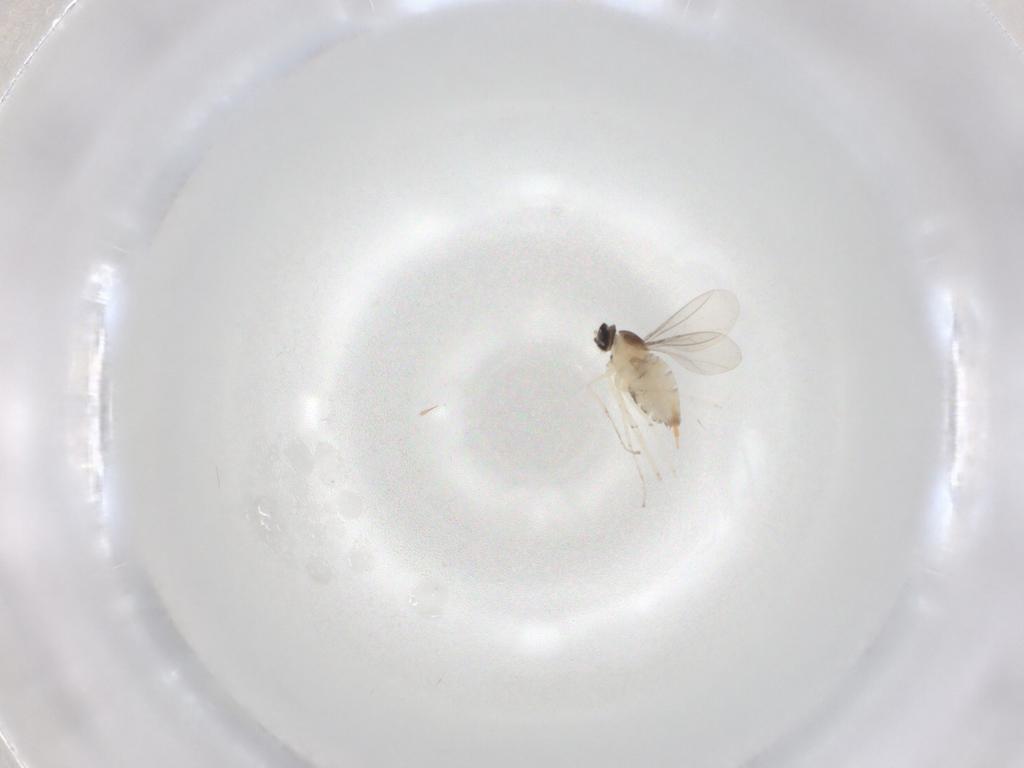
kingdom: Animalia
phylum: Arthropoda
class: Insecta
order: Diptera
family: Cecidomyiidae
